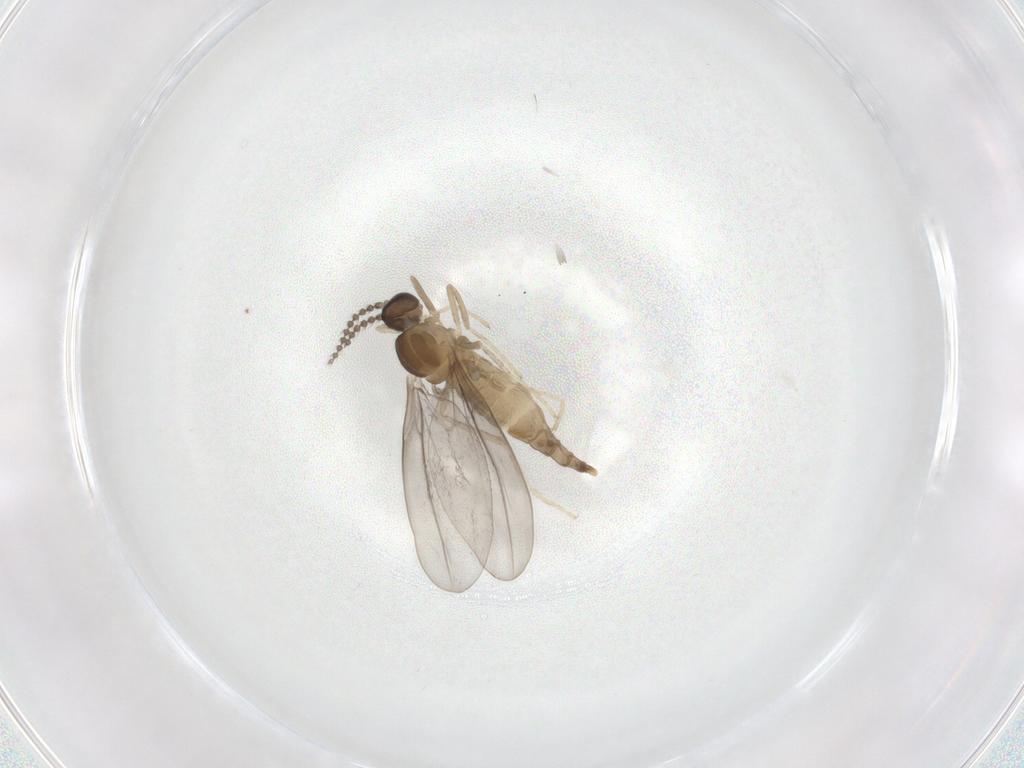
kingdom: Animalia
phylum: Arthropoda
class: Insecta
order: Diptera
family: Cecidomyiidae
